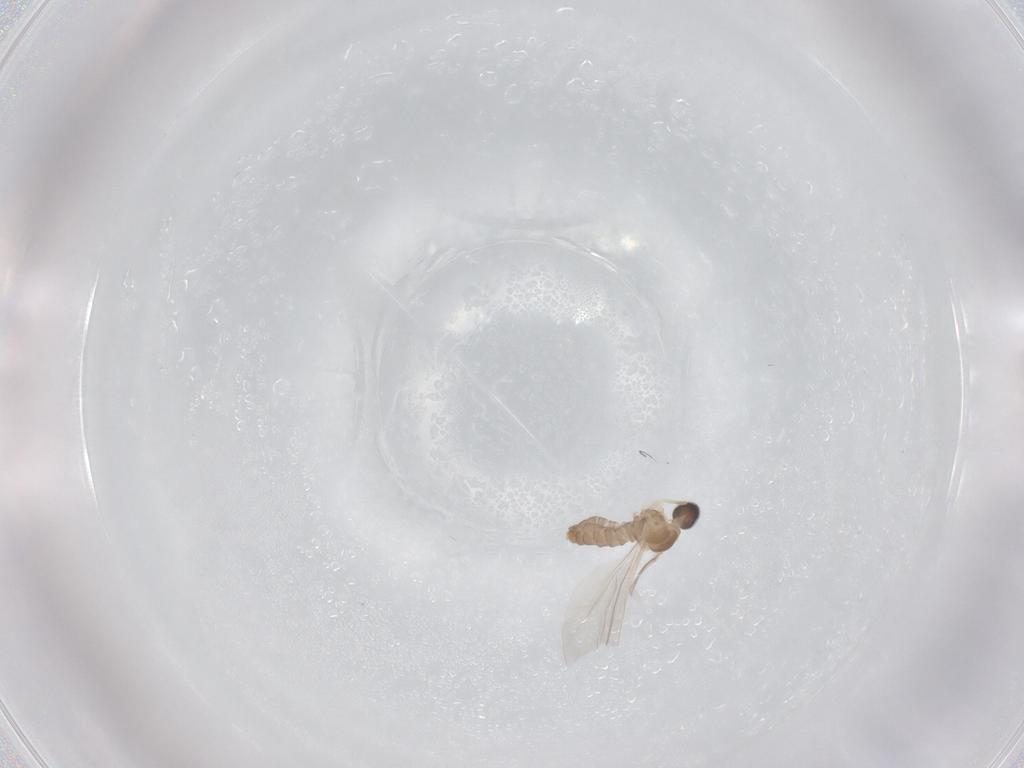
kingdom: Animalia
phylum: Arthropoda
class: Insecta
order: Diptera
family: Cecidomyiidae
